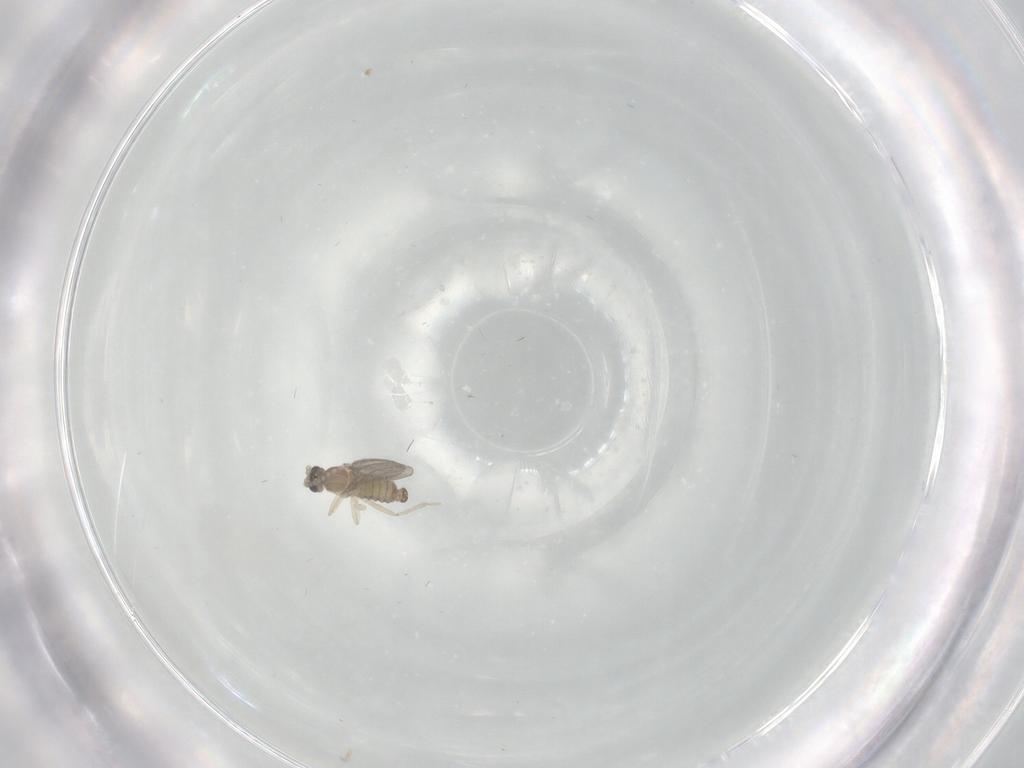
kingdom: Animalia
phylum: Arthropoda
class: Insecta
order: Diptera
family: Cecidomyiidae
